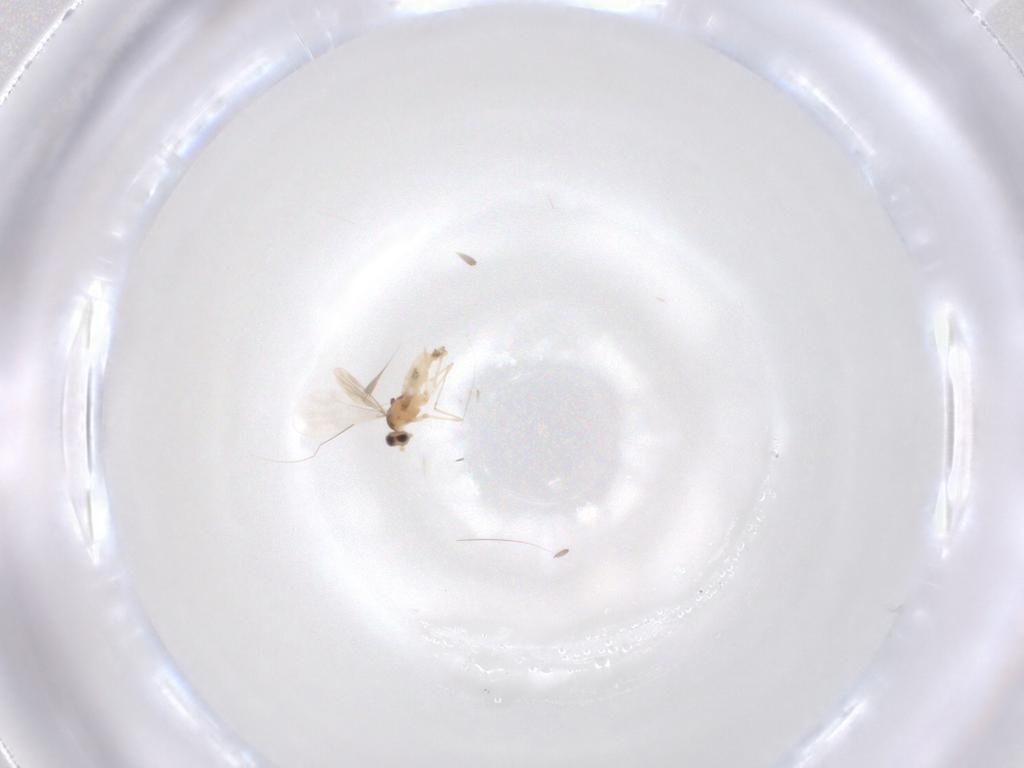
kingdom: Animalia
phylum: Arthropoda
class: Insecta
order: Diptera
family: Cecidomyiidae
